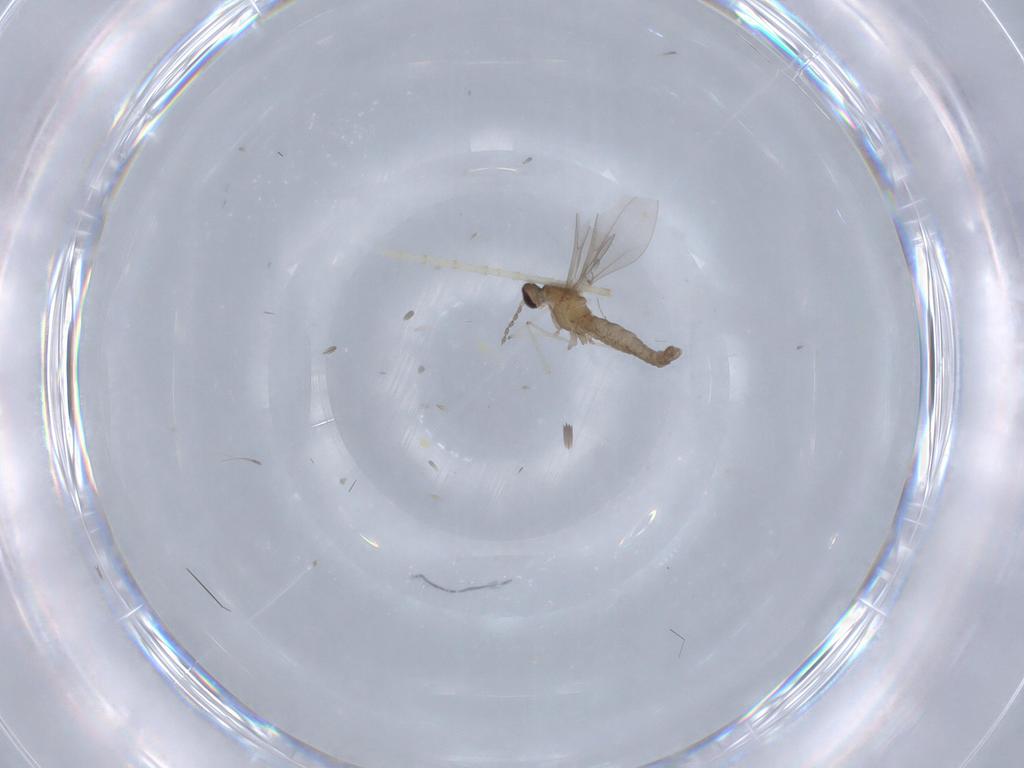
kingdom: Animalia
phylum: Arthropoda
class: Insecta
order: Diptera
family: Cecidomyiidae
